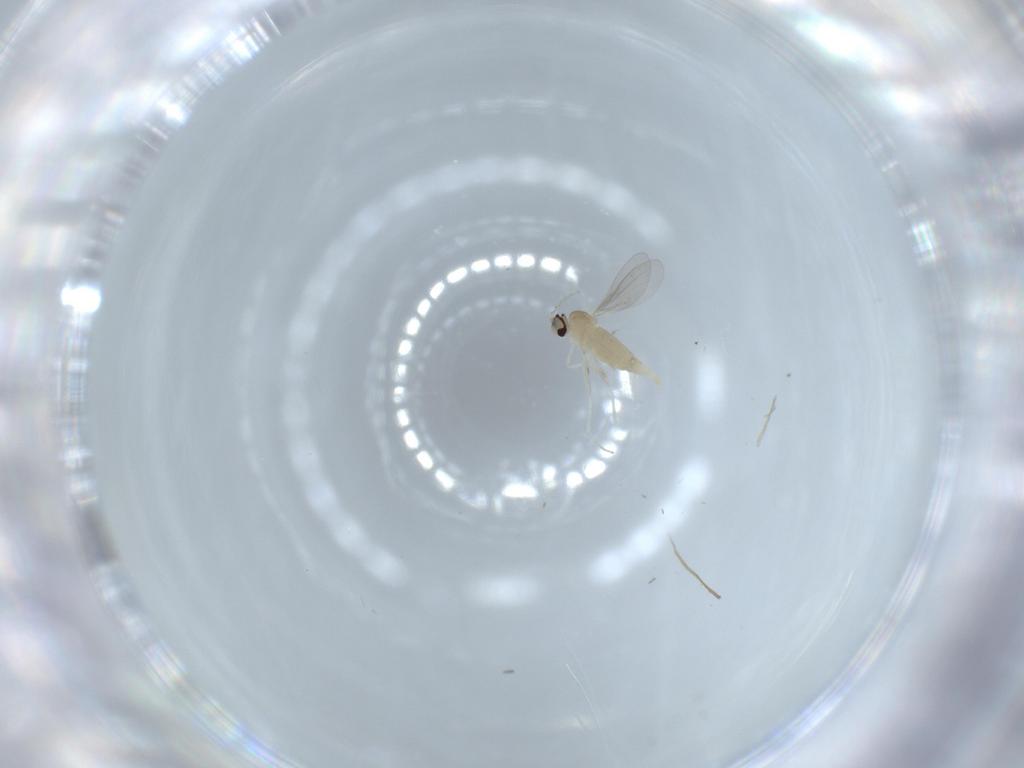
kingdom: Animalia
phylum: Arthropoda
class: Insecta
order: Diptera
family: Cecidomyiidae
